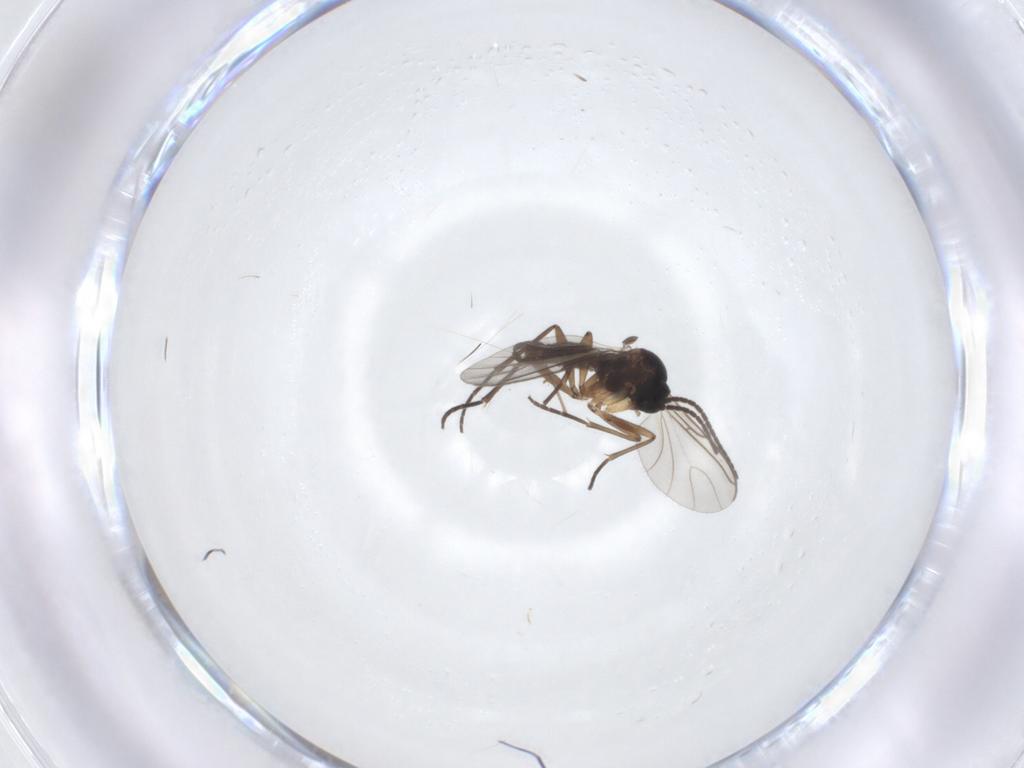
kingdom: Animalia
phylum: Arthropoda
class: Insecta
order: Diptera
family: Sciaridae
